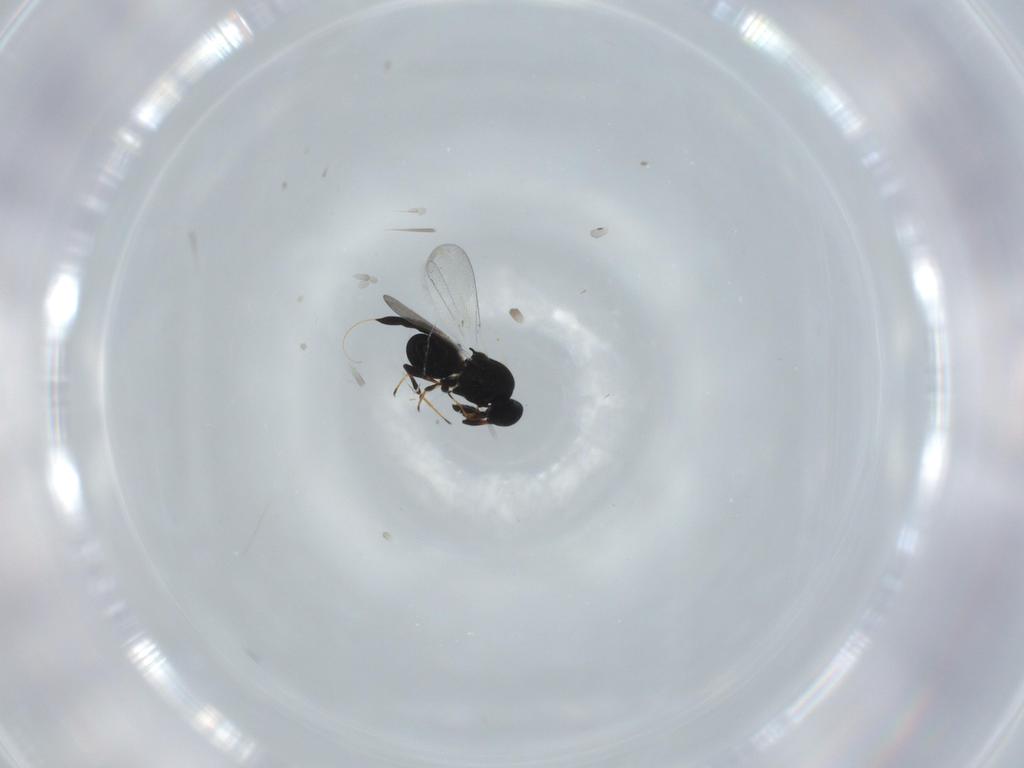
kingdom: Animalia
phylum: Arthropoda
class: Insecta
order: Hymenoptera
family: Platygastridae
